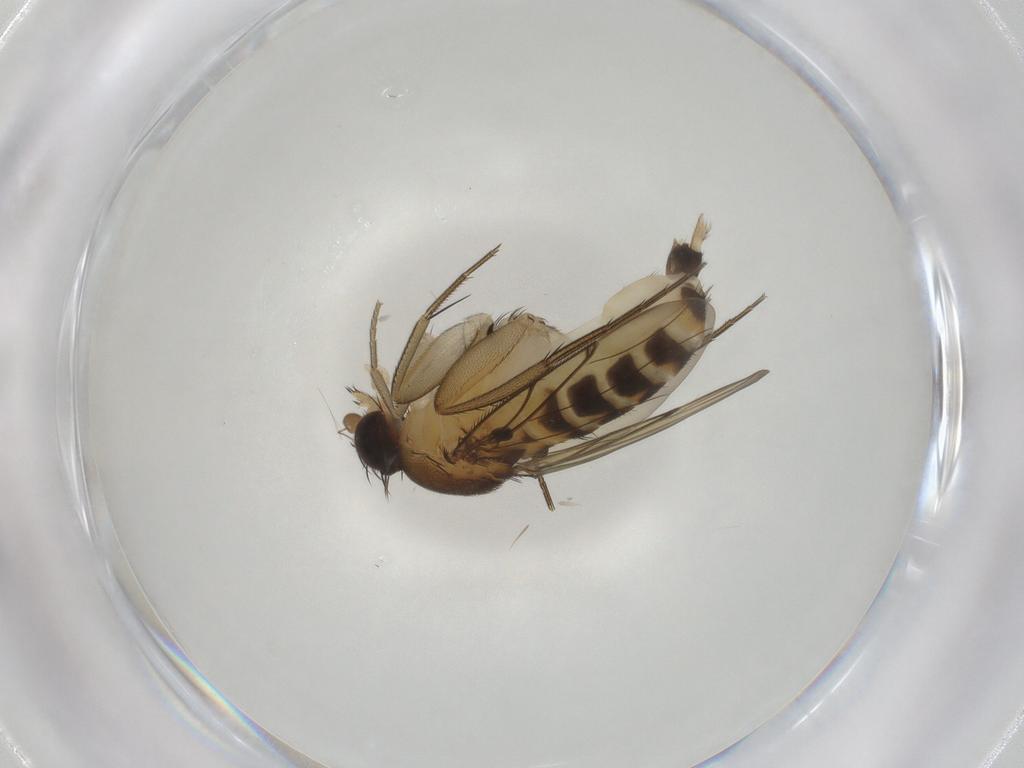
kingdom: Animalia
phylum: Arthropoda
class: Insecta
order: Diptera
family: Phoridae
